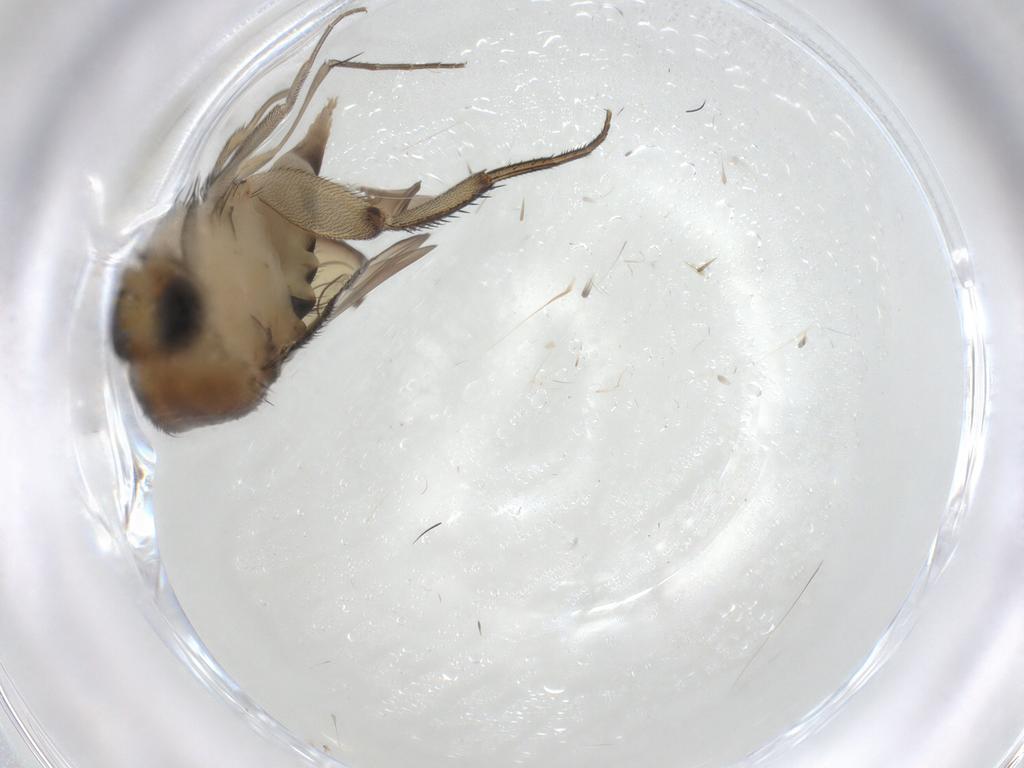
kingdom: Animalia
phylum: Arthropoda
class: Insecta
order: Diptera
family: Phoridae
